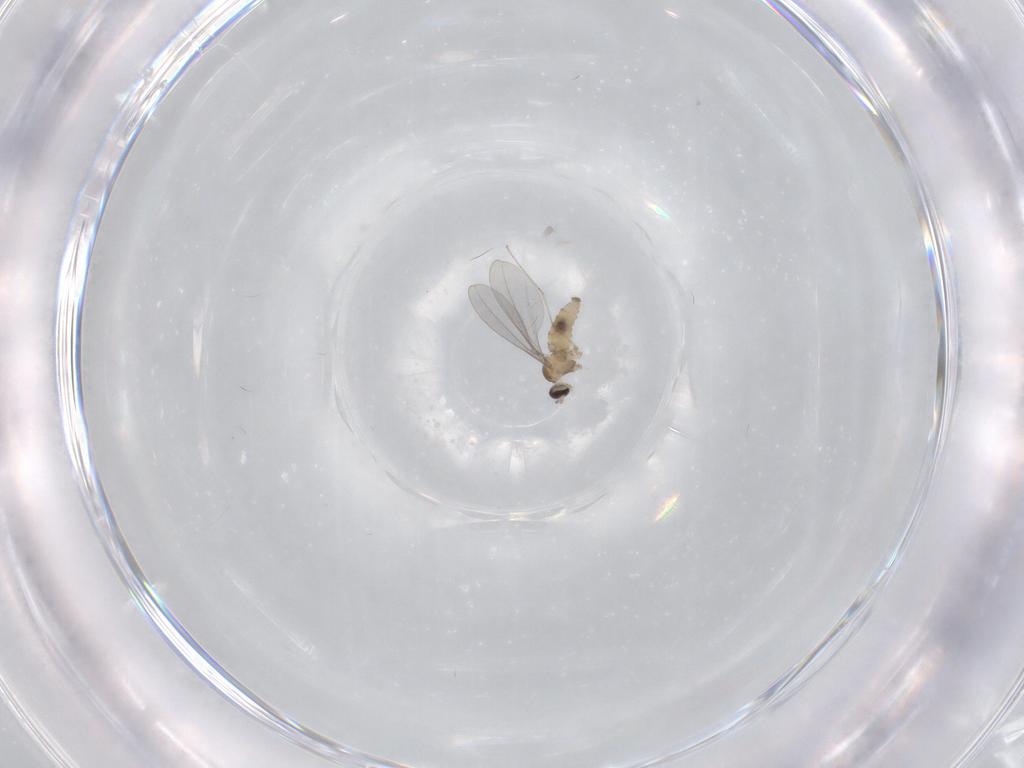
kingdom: Animalia
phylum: Arthropoda
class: Insecta
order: Diptera
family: Cecidomyiidae
